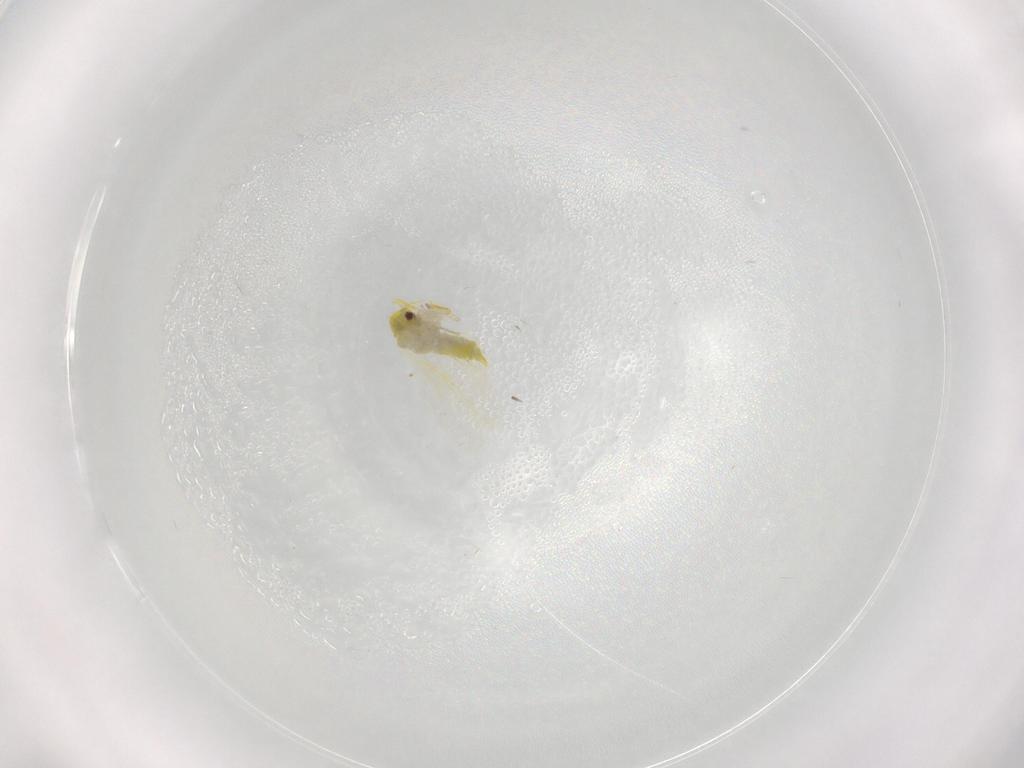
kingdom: Animalia
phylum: Arthropoda
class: Insecta
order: Hemiptera
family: Aleyrodidae
